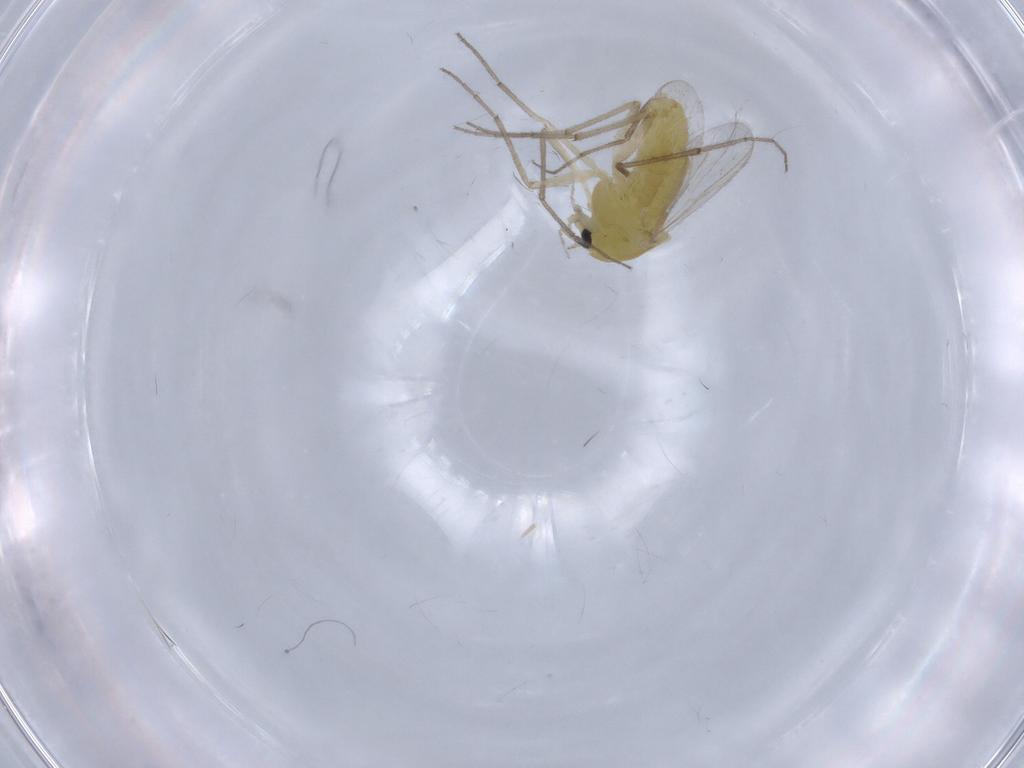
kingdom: Animalia
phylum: Arthropoda
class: Insecta
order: Diptera
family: Chironomidae
